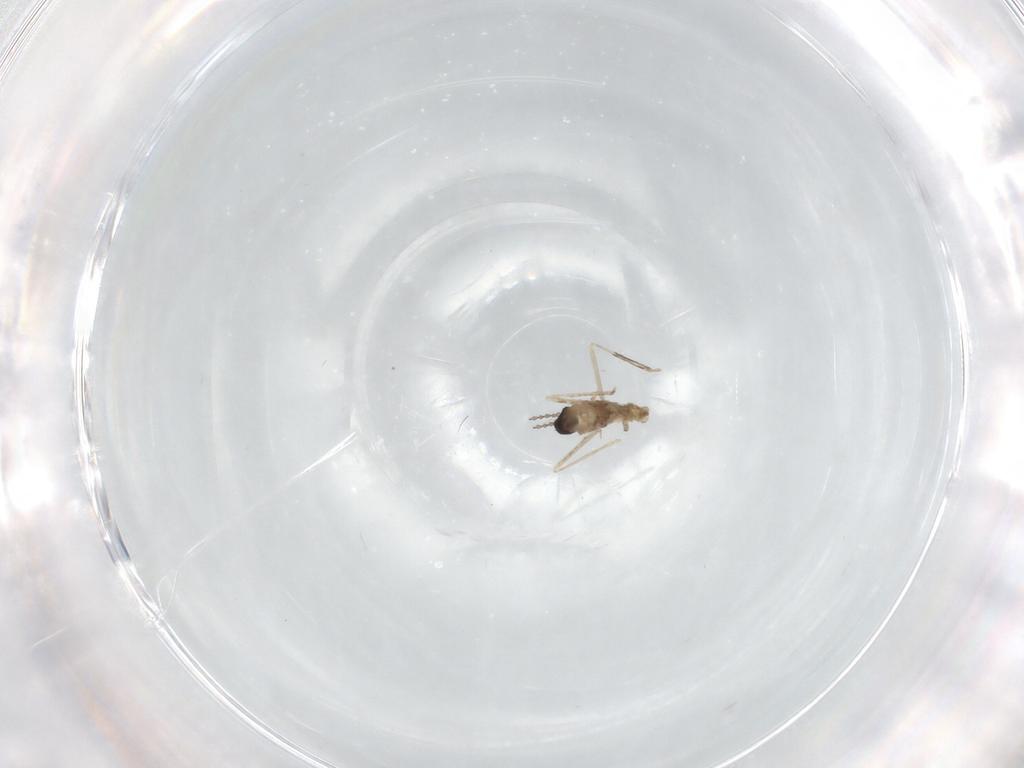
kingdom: Animalia
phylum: Arthropoda
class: Insecta
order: Diptera
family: Cecidomyiidae
